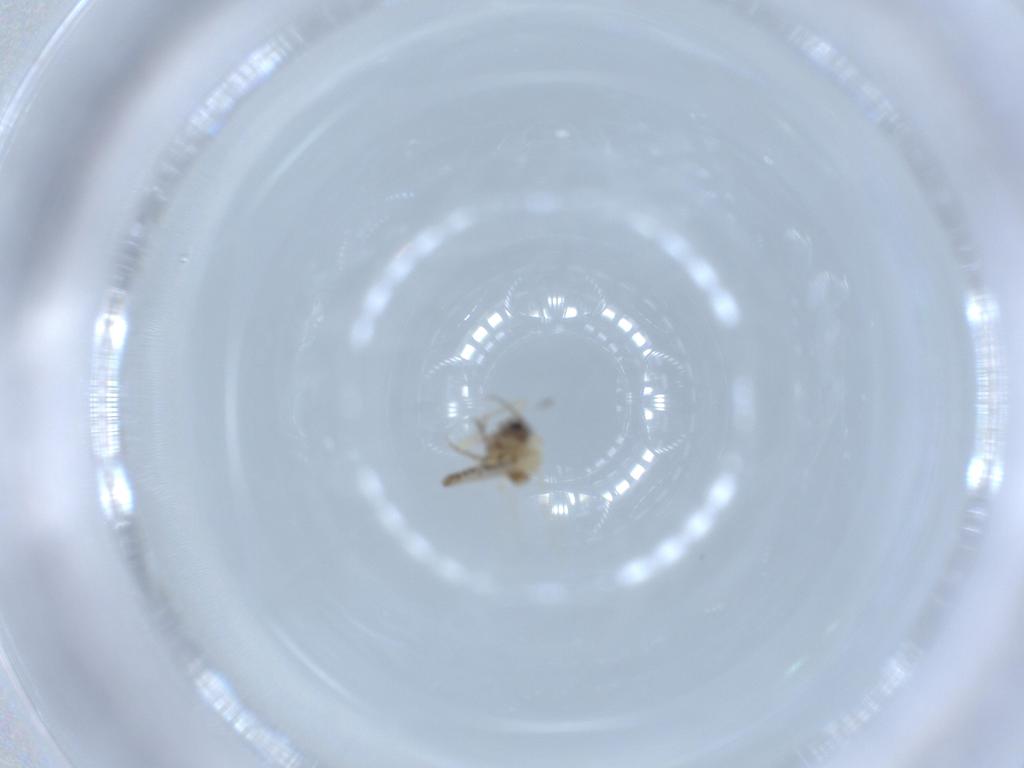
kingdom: Animalia
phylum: Arthropoda
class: Insecta
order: Diptera
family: Ceratopogonidae
